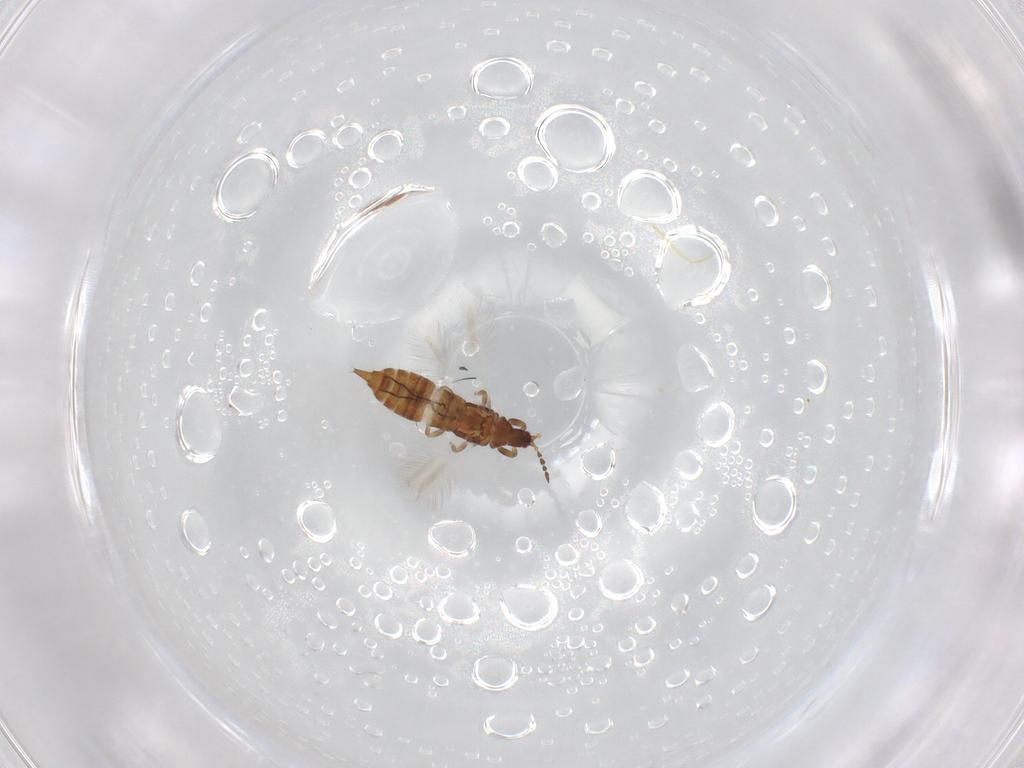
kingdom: Animalia
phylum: Arthropoda
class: Insecta
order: Thysanoptera
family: Phlaeothripidae
